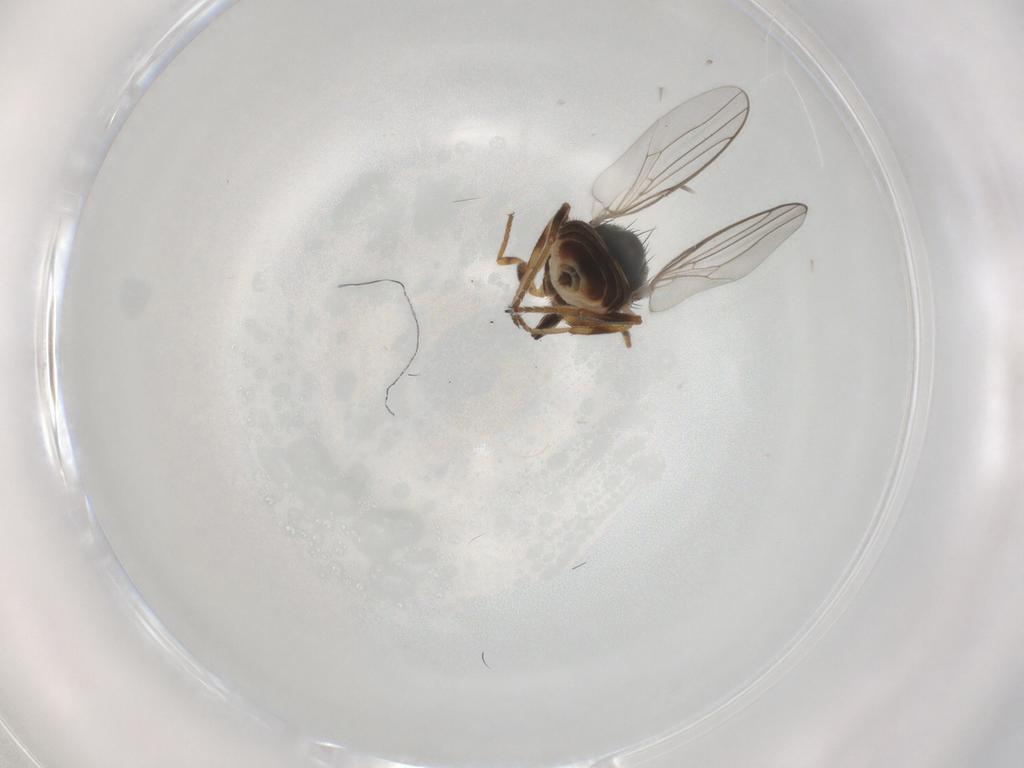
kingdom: Animalia
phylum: Arthropoda
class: Insecta
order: Diptera
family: Chloropidae
